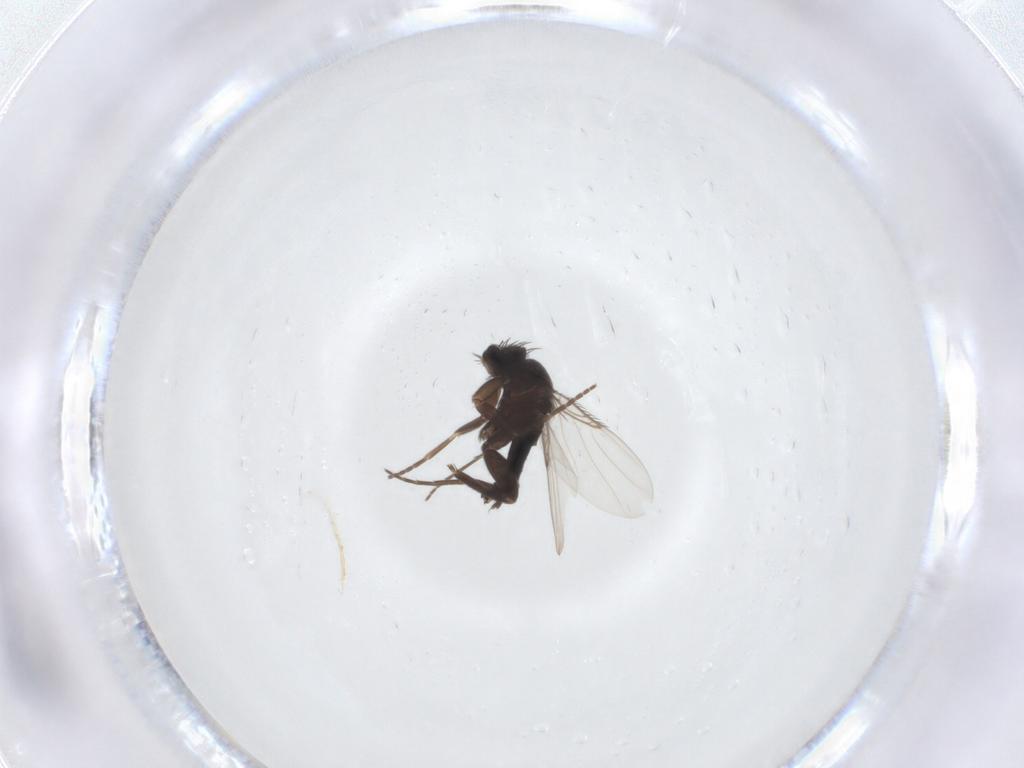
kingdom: Animalia
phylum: Arthropoda
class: Insecta
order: Diptera
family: Phoridae
